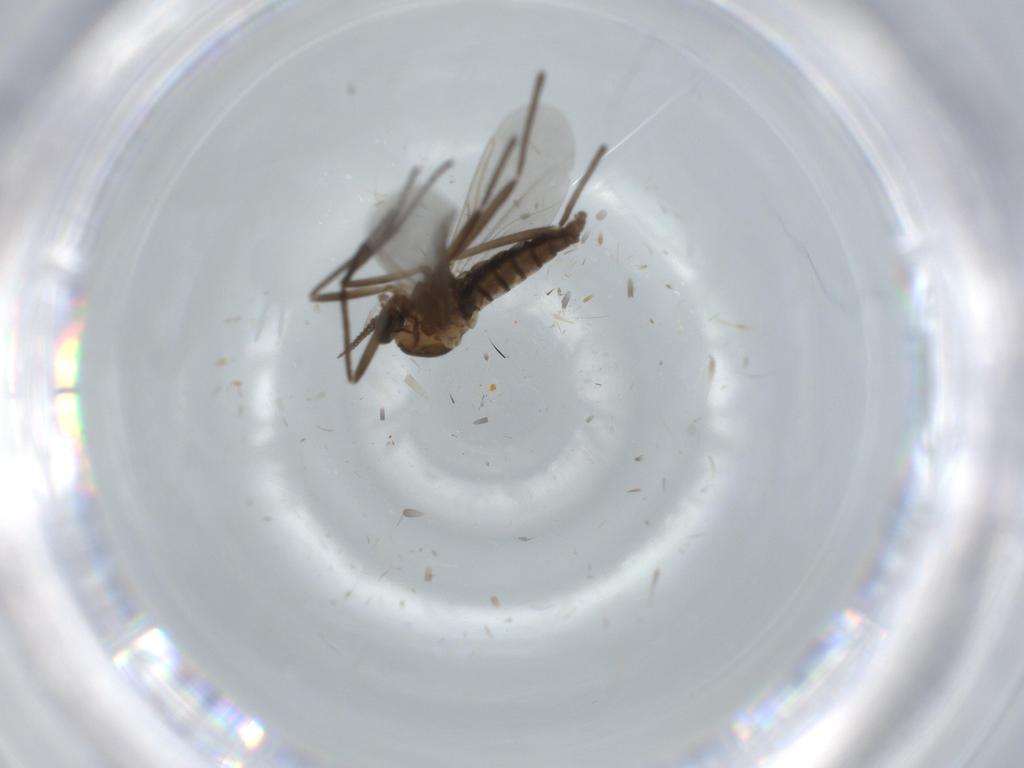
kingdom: Animalia
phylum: Arthropoda
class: Insecta
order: Diptera
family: Cecidomyiidae
